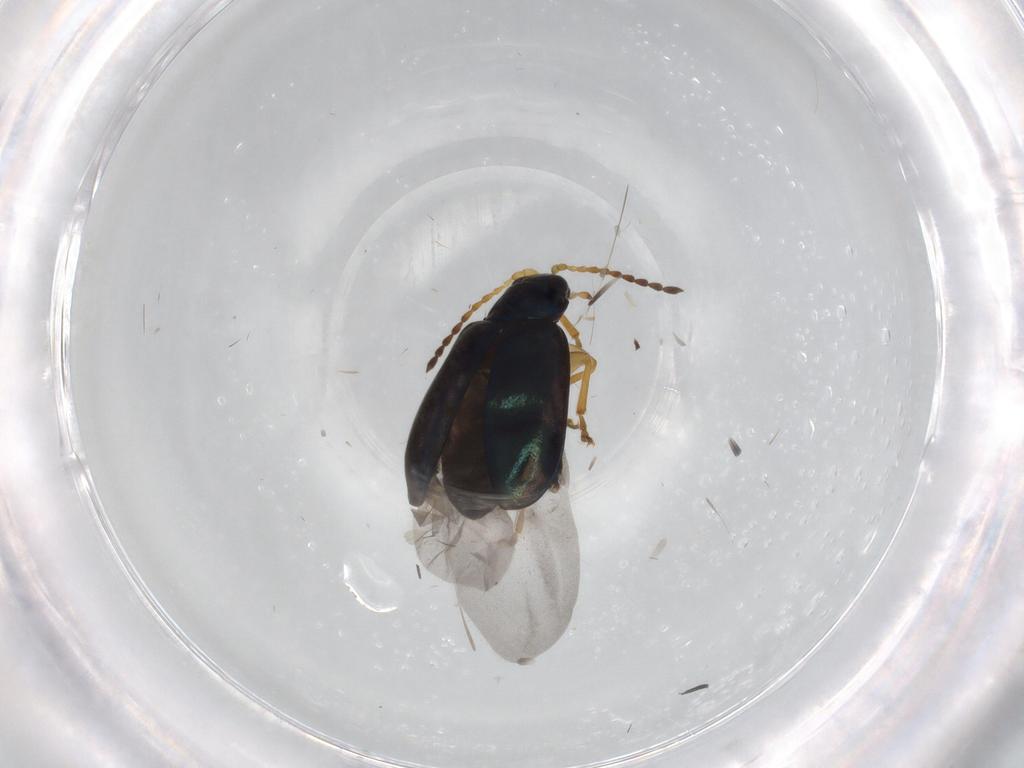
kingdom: Animalia
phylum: Arthropoda
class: Insecta
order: Coleoptera
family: Chrysomelidae
